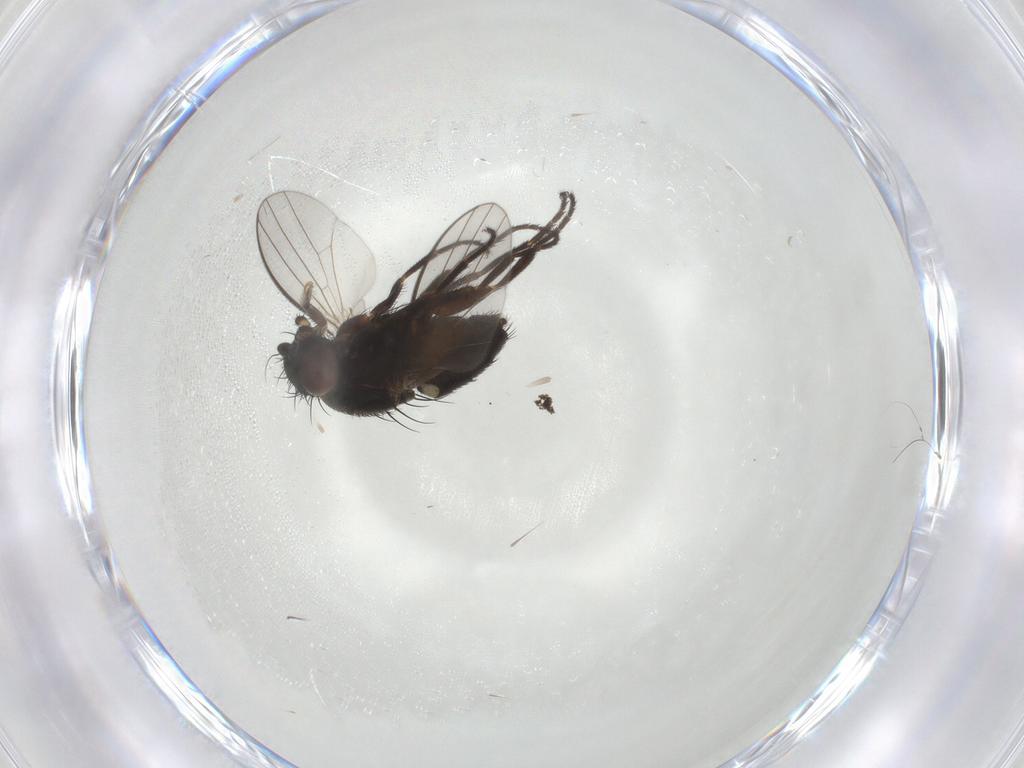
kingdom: Animalia
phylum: Arthropoda
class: Insecta
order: Diptera
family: Sciaridae
